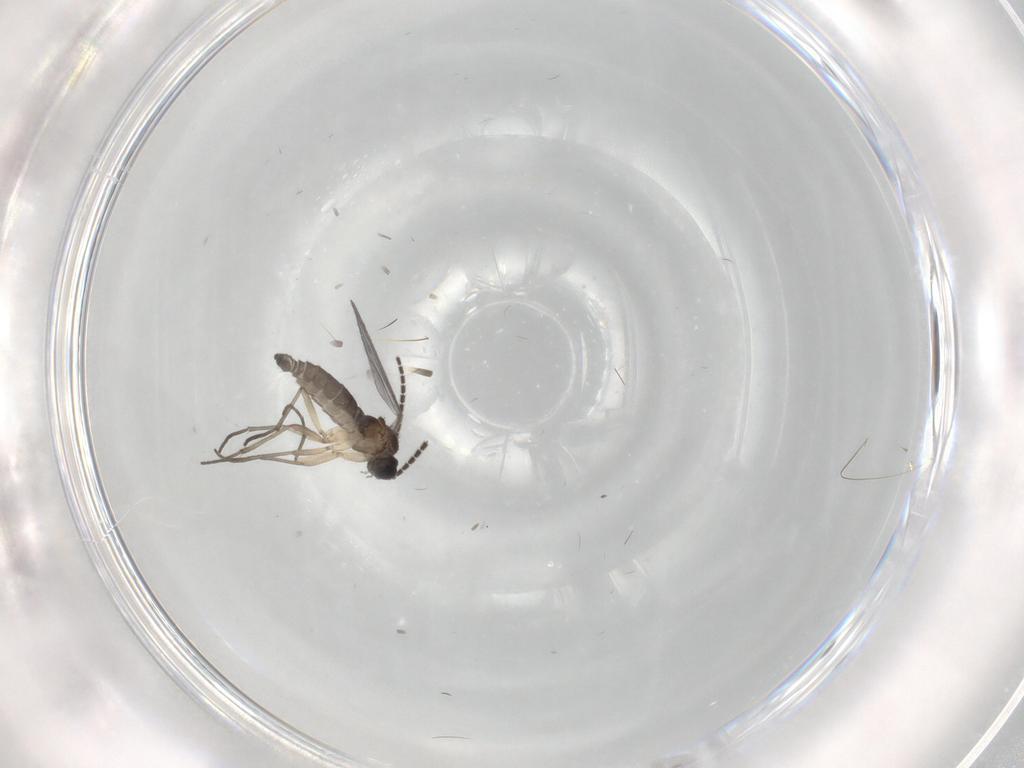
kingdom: Animalia
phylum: Arthropoda
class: Insecta
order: Diptera
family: Sciaridae
